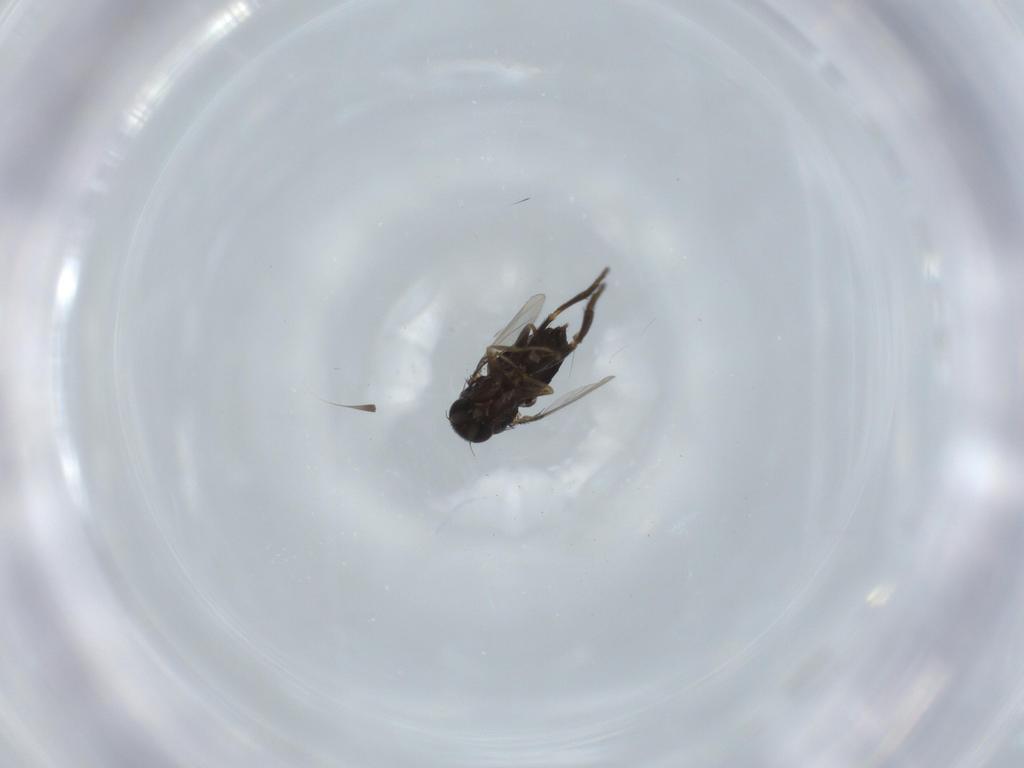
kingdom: Animalia
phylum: Arthropoda
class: Insecta
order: Diptera
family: Phoridae
